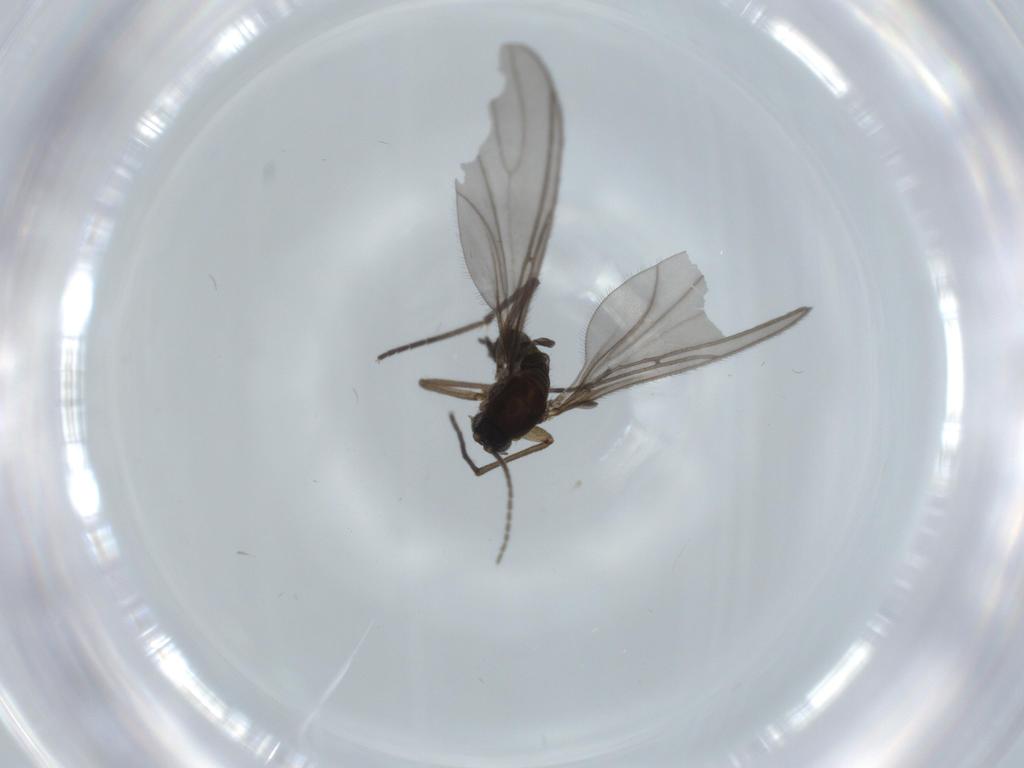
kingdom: Animalia
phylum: Arthropoda
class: Insecta
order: Diptera
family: Sciaridae
